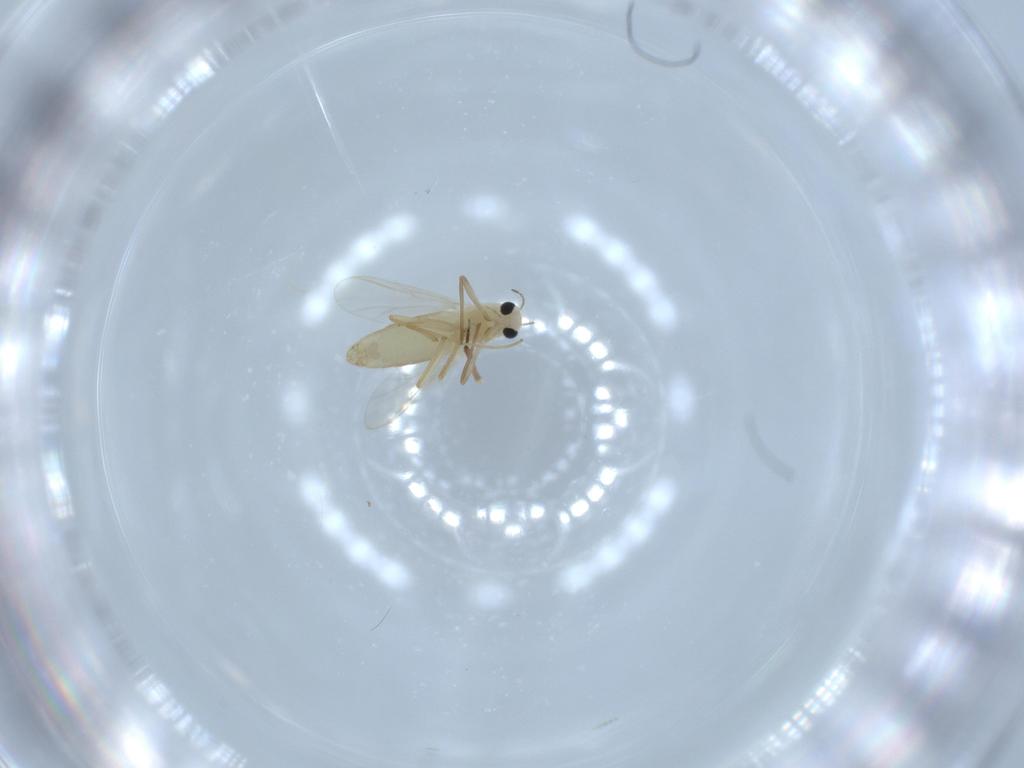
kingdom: Animalia
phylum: Arthropoda
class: Insecta
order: Diptera
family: Chironomidae
